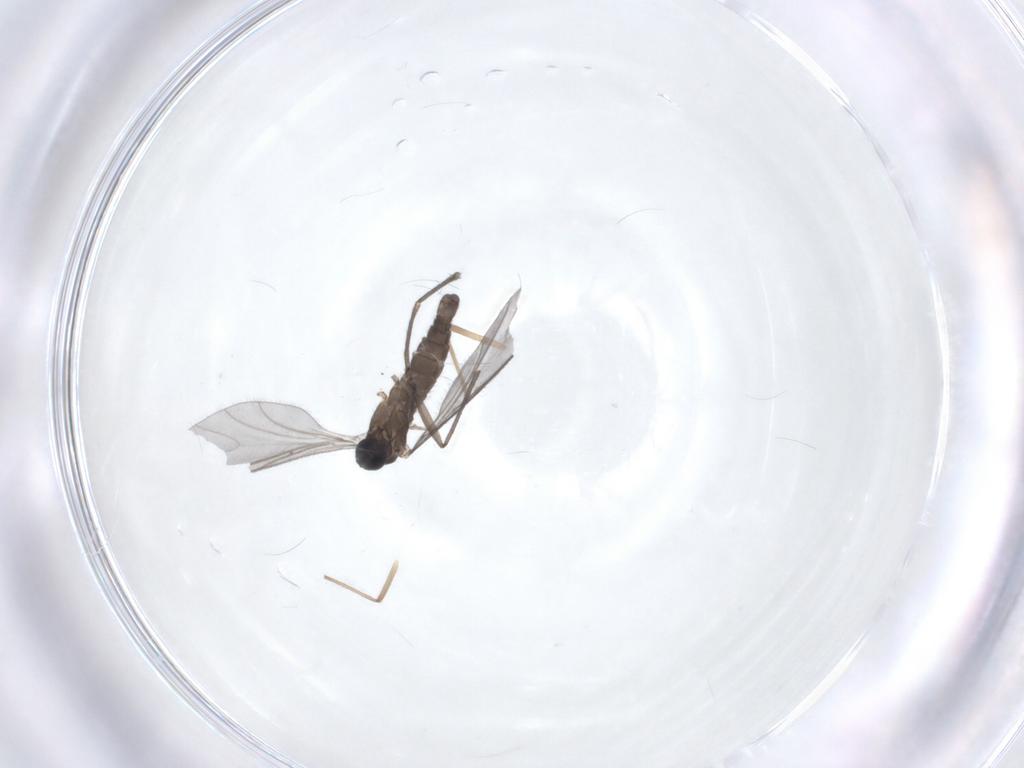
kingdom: Animalia
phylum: Arthropoda
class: Insecta
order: Diptera
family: Sciaridae
